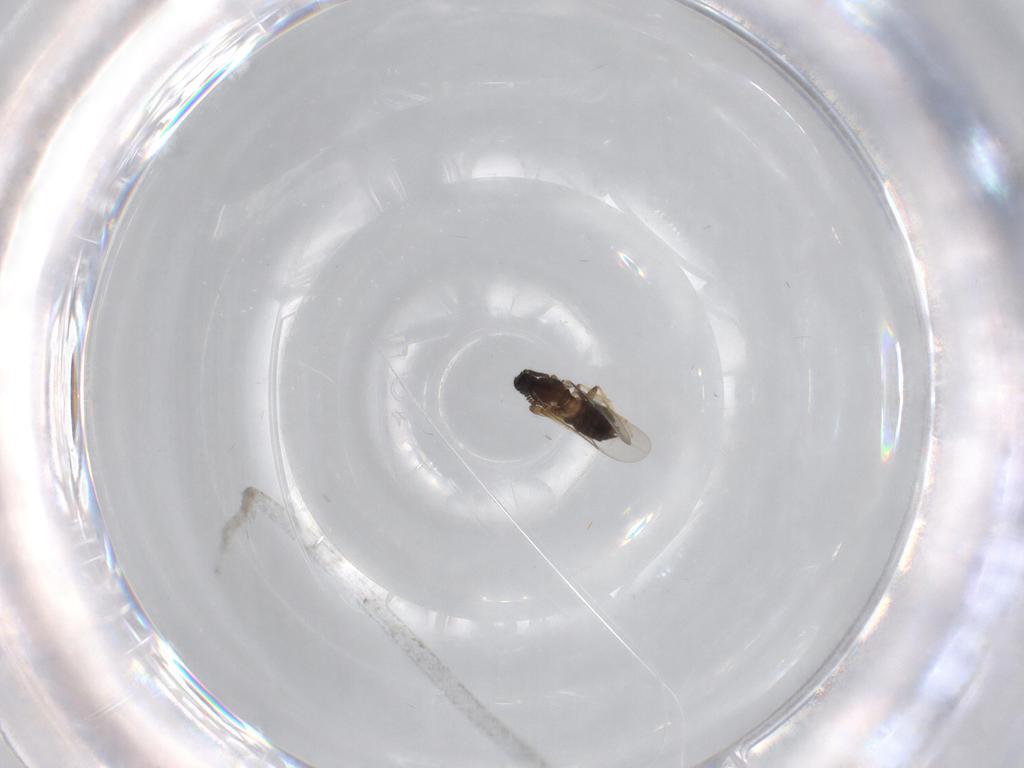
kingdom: Animalia
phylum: Arthropoda
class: Insecta
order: Diptera
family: Scatopsidae
